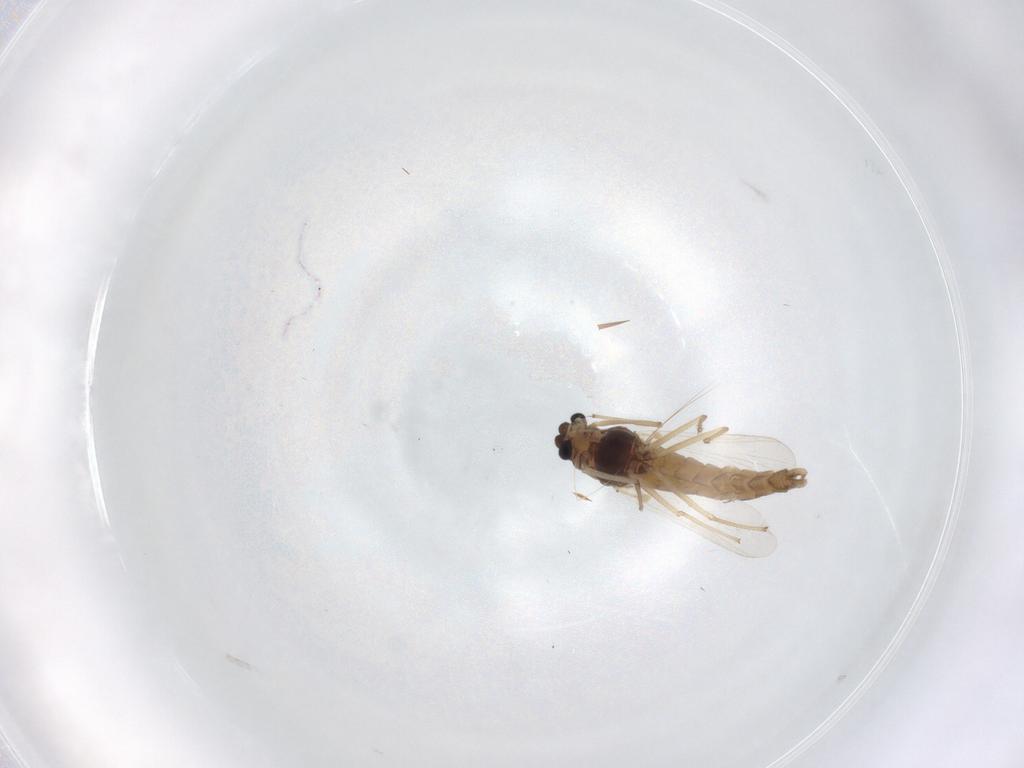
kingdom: Animalia
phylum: Arthropoda
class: Insecta
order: Diptera
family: Chironomidae
